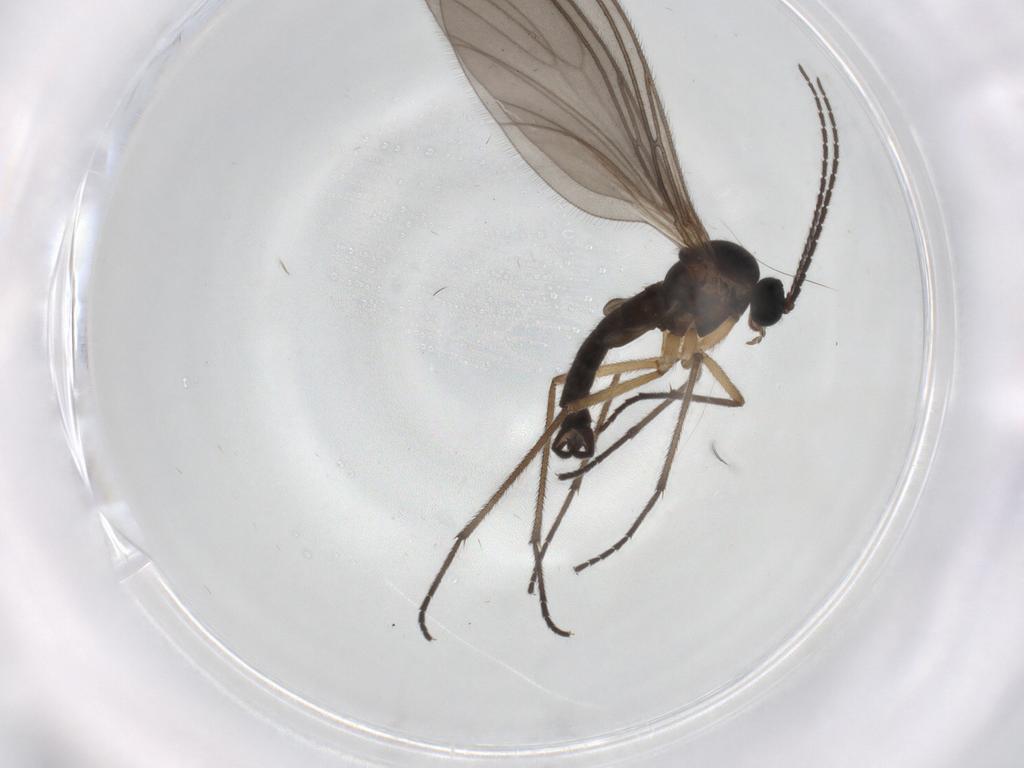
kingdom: Animalia
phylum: Arthropoda
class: Insecta
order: Diptera
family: Sciaridae
